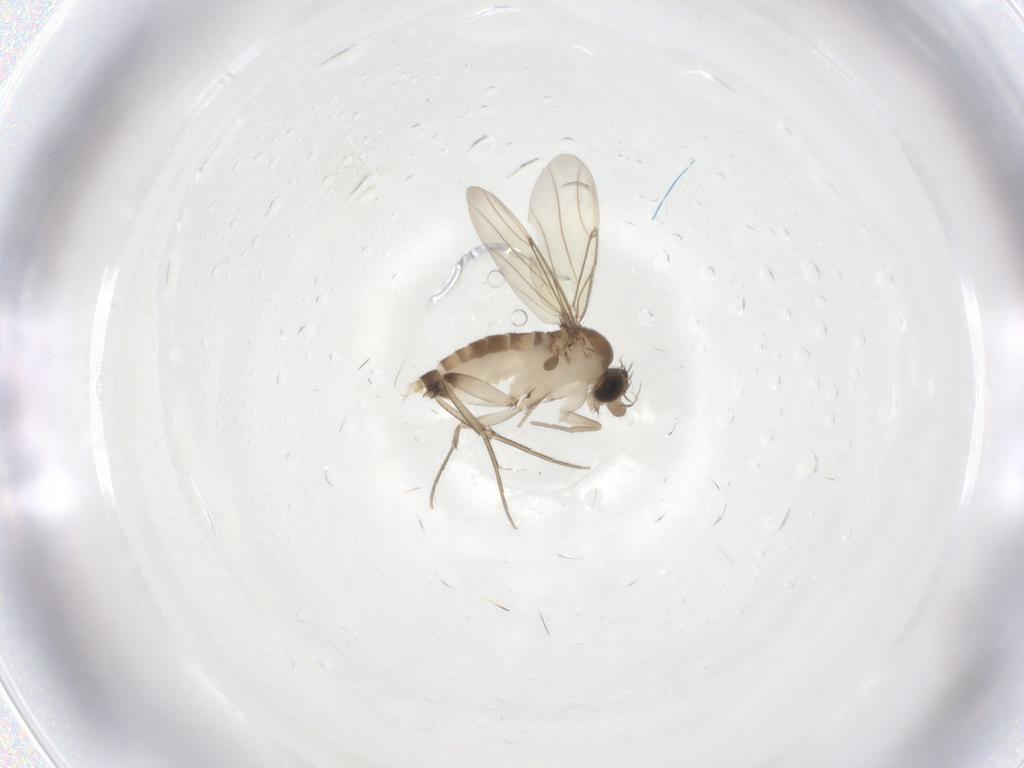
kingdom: Animalia
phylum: Arthropoda
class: Insecta
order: Diptera
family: Phoridae
